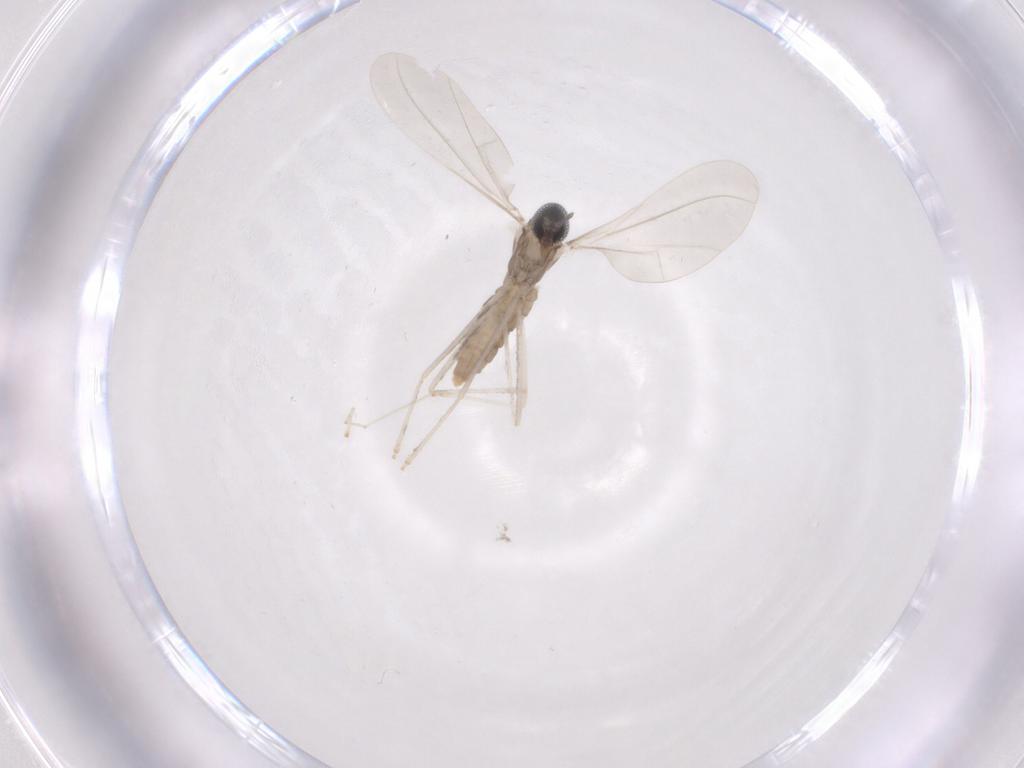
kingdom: Animalia
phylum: Arthropoda
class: Insecta
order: Diptera
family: Cecidomyiidae
